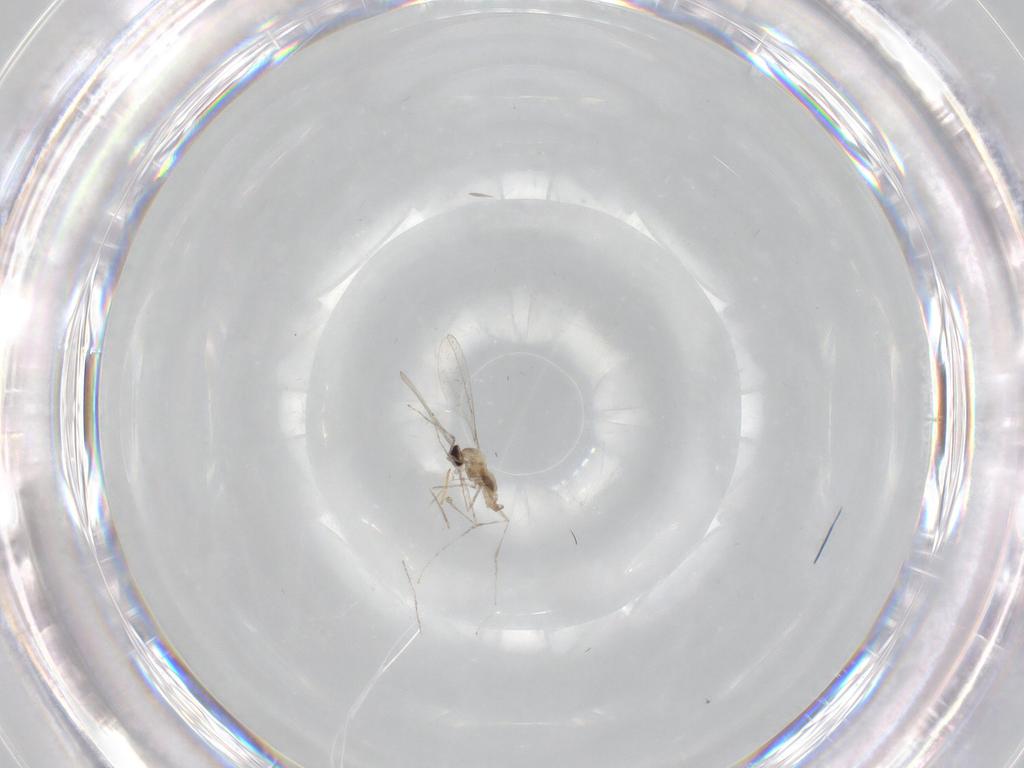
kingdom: Animalia
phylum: Arthropoda
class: Insecta
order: Diptera
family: Cecidomyiidae
